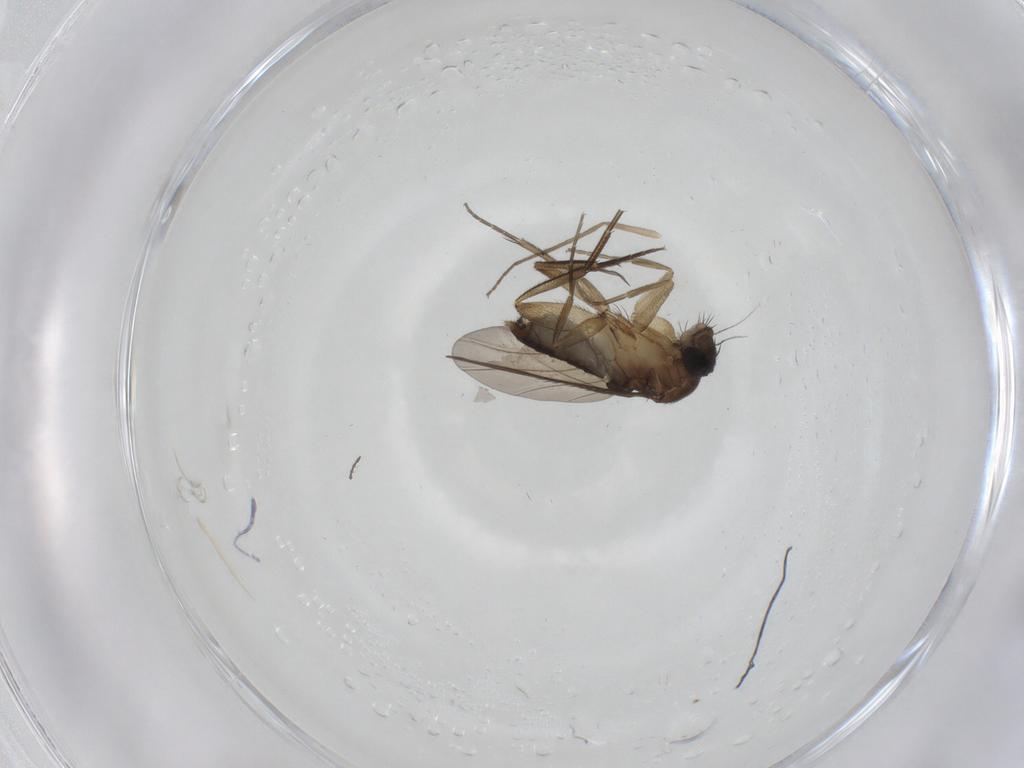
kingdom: Animalia
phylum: Arthropoda
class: Insecta
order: Diptera
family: Phoridae
